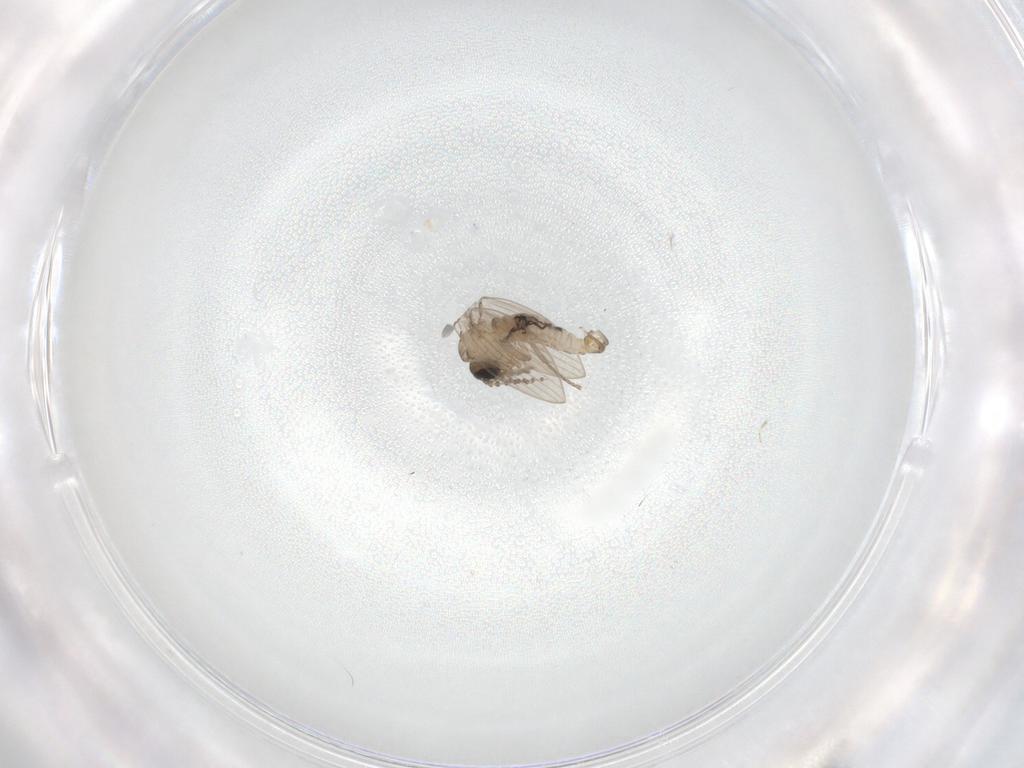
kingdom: Animalia
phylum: Arthropoda
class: Insecta
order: Diptera
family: Psychodidae
